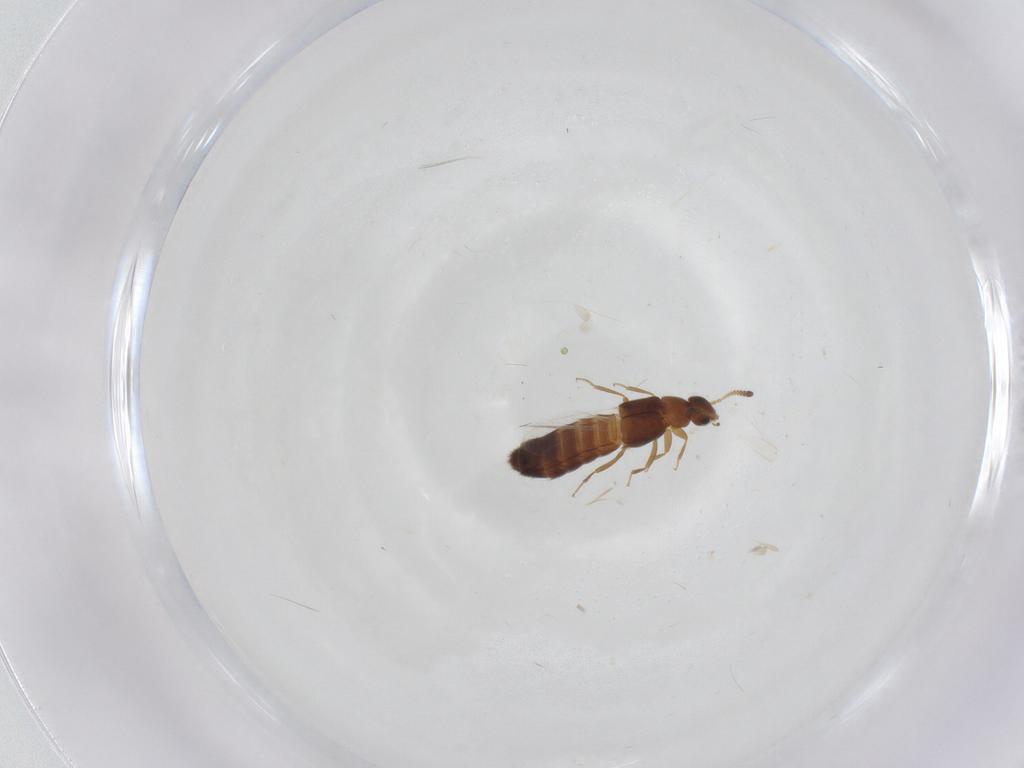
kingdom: Animalia
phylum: Arthropoda
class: Insecta
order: Coleoptera
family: Staphylinidae
